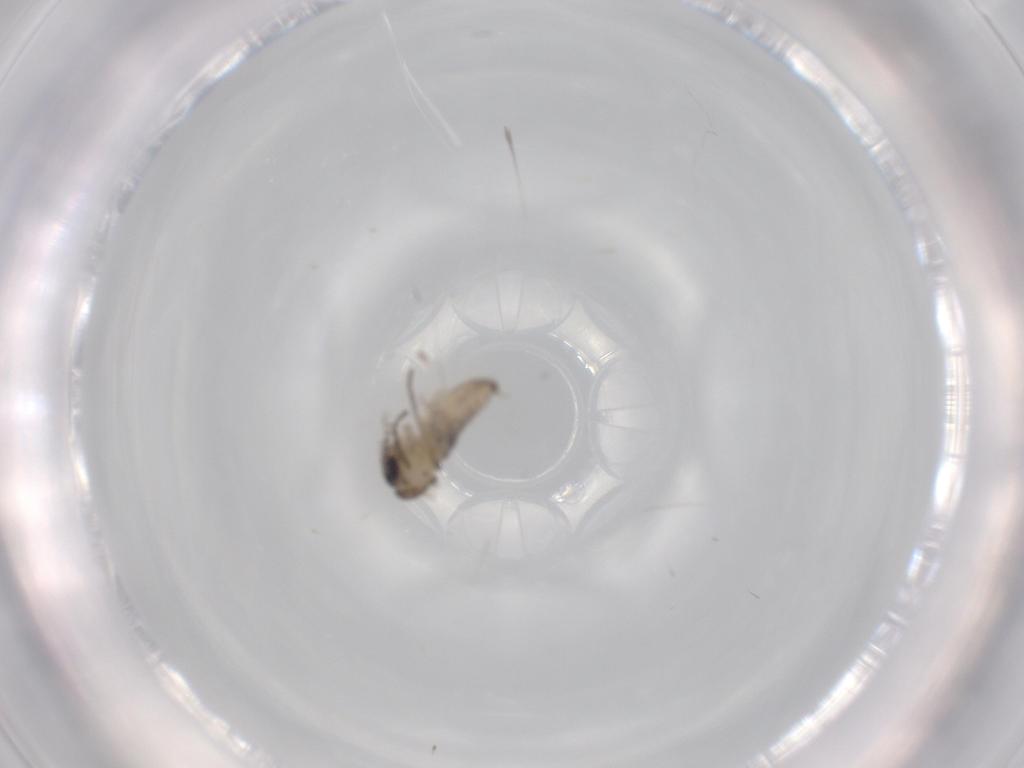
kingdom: Animalia
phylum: Arthropoda
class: Insecta
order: Diptera
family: Chironomidae
